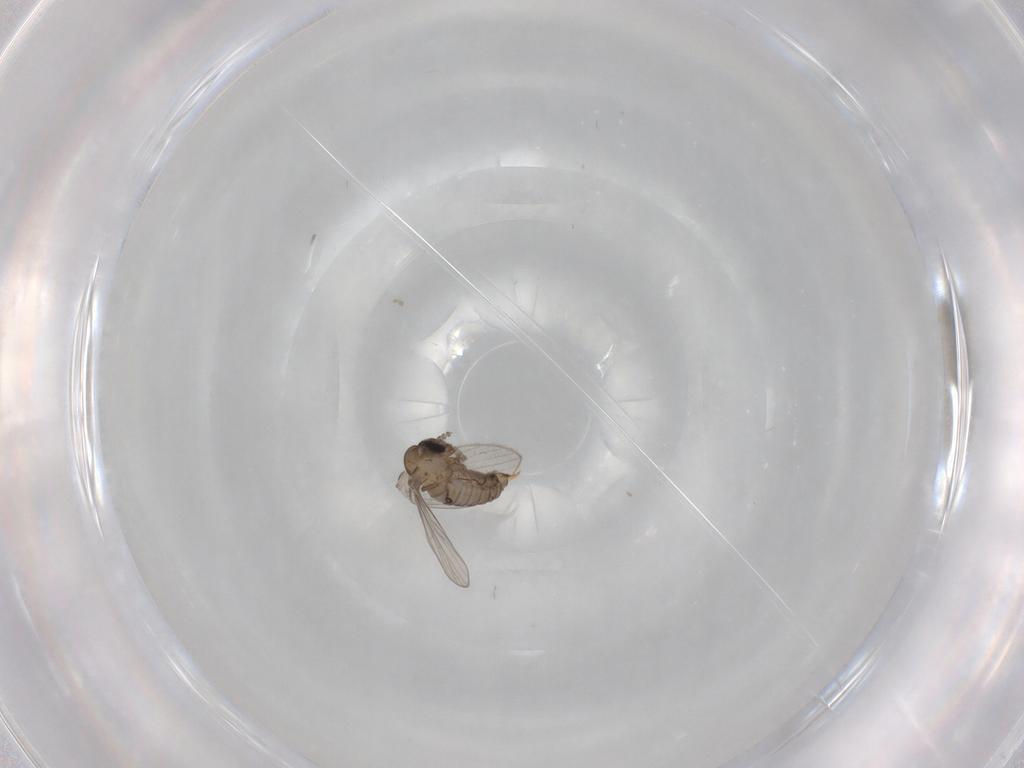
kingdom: Animalia
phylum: Arthropoda
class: Insecta
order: Diptera
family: Psychodidae
